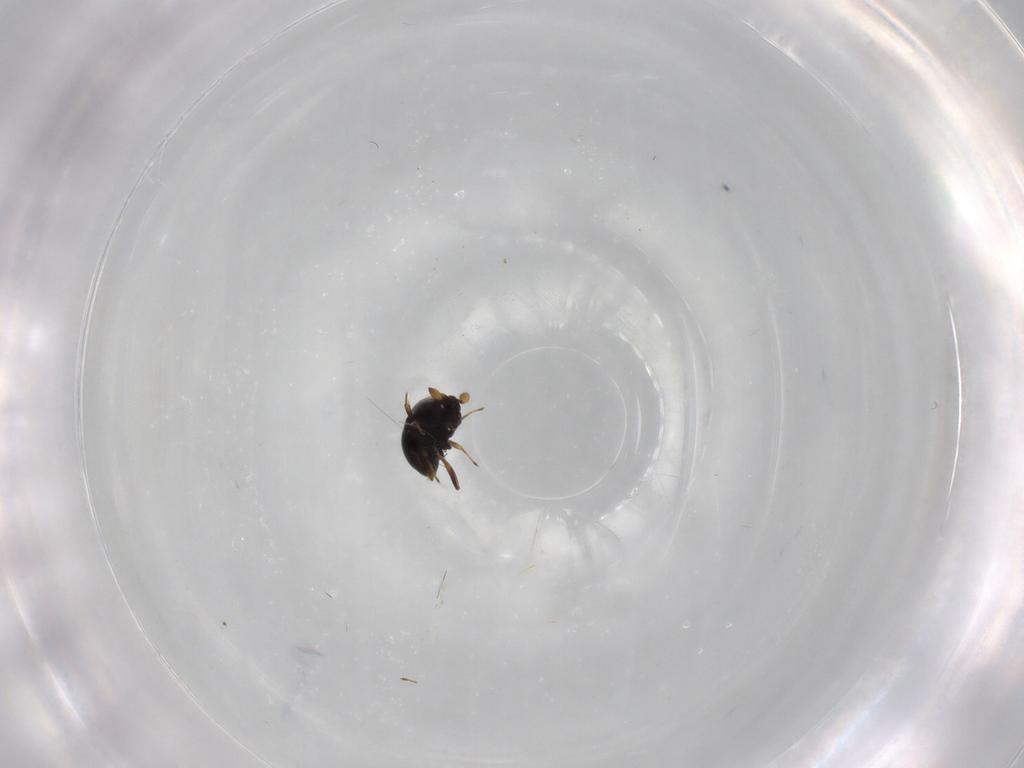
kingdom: Animalia
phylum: Arthropoda
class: Insecta
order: Hymenoptera
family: Scelionidae
